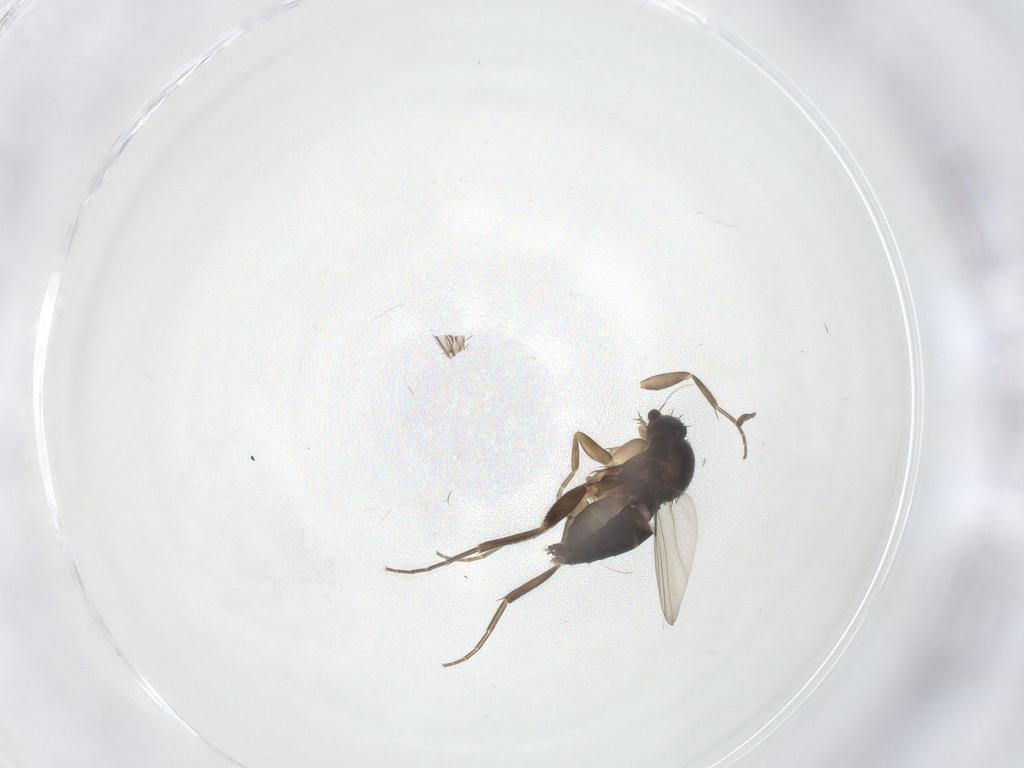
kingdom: Animalia
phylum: Arthropoda
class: Insecta
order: Diptera
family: Phoridae
